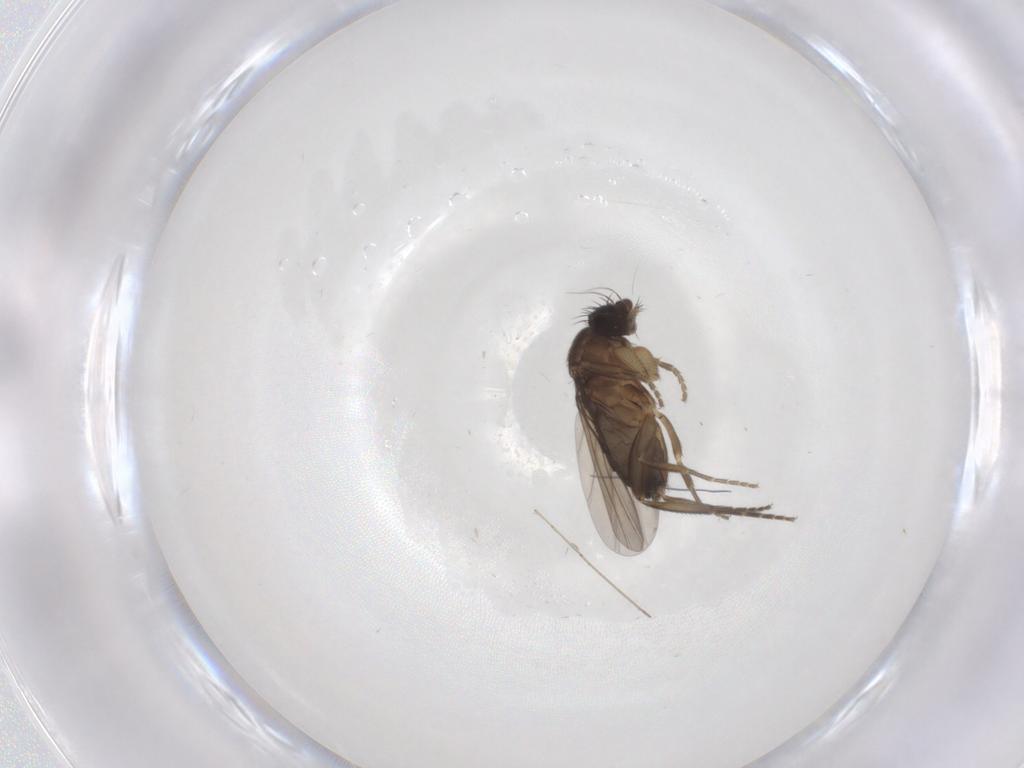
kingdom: Animalia
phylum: Arthropoda
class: Insecta
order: Diptera
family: Phoridae
